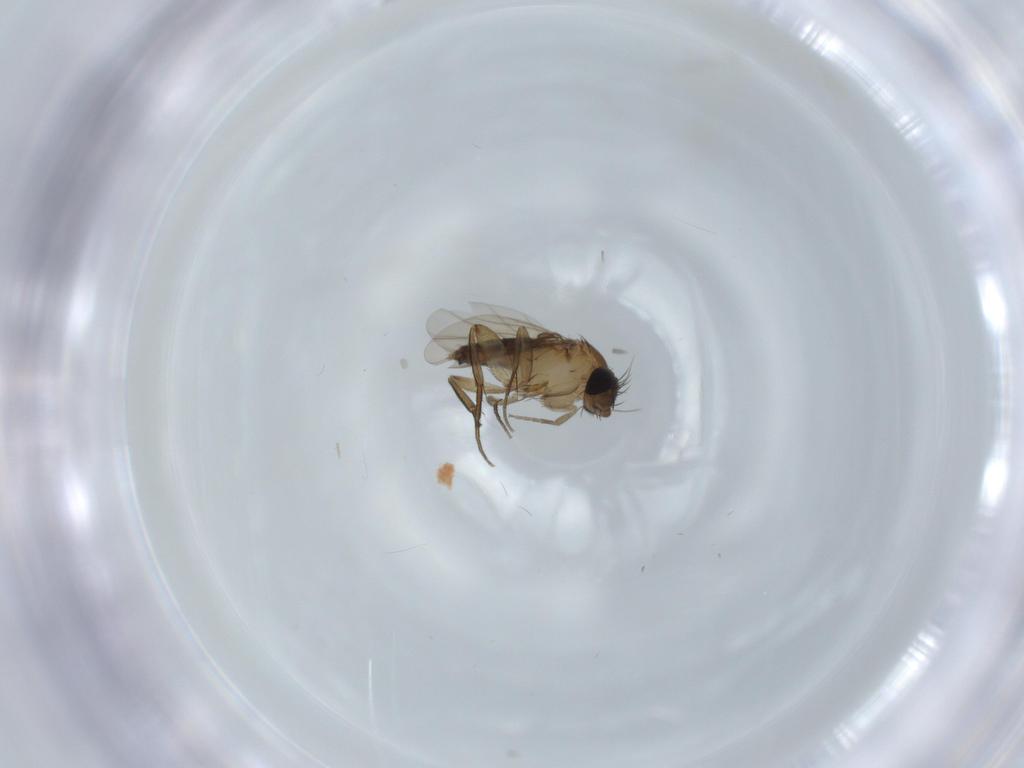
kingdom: Animalia
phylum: Arthropoda
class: Insecta
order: Diptera
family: Phoridae
